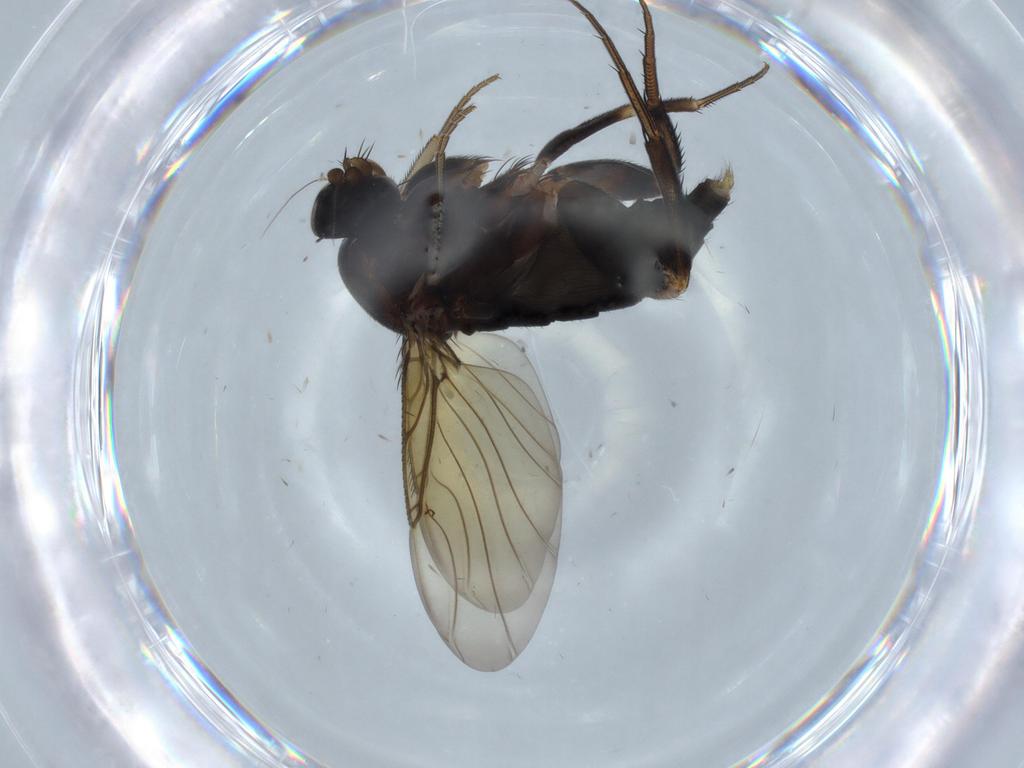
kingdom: Animalia
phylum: Arthropoda
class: Insecta
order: Diptera
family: Phoridae
